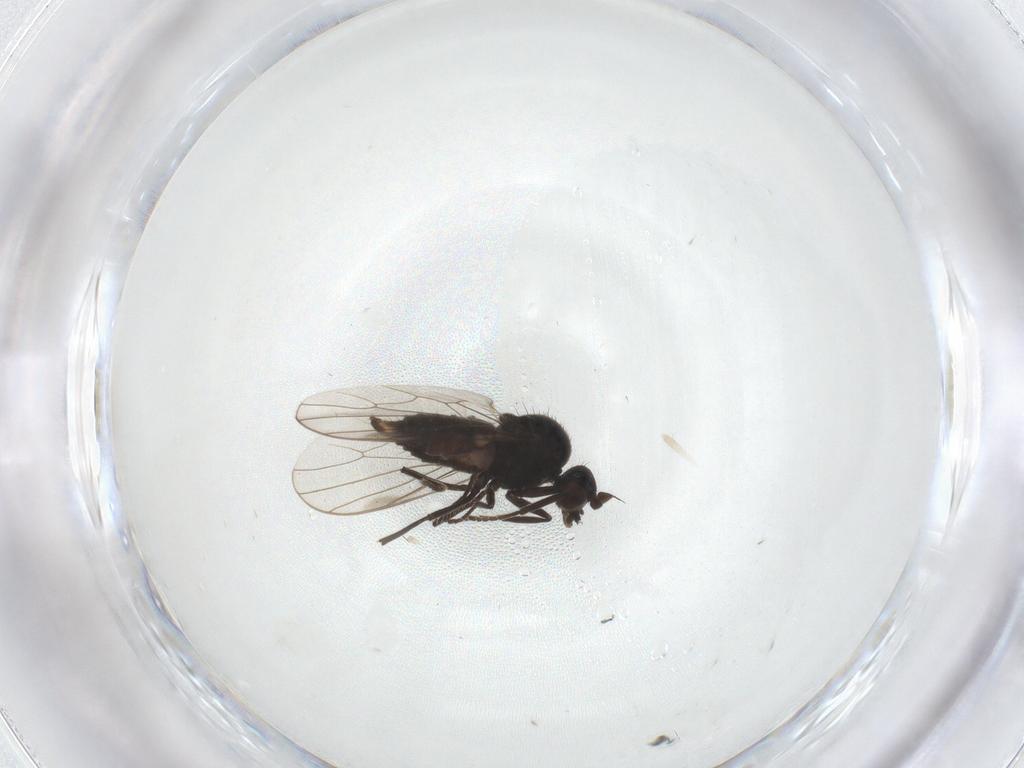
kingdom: Animalia
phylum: Arthropoda
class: Insecta
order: Diptera
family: Hybotidae
